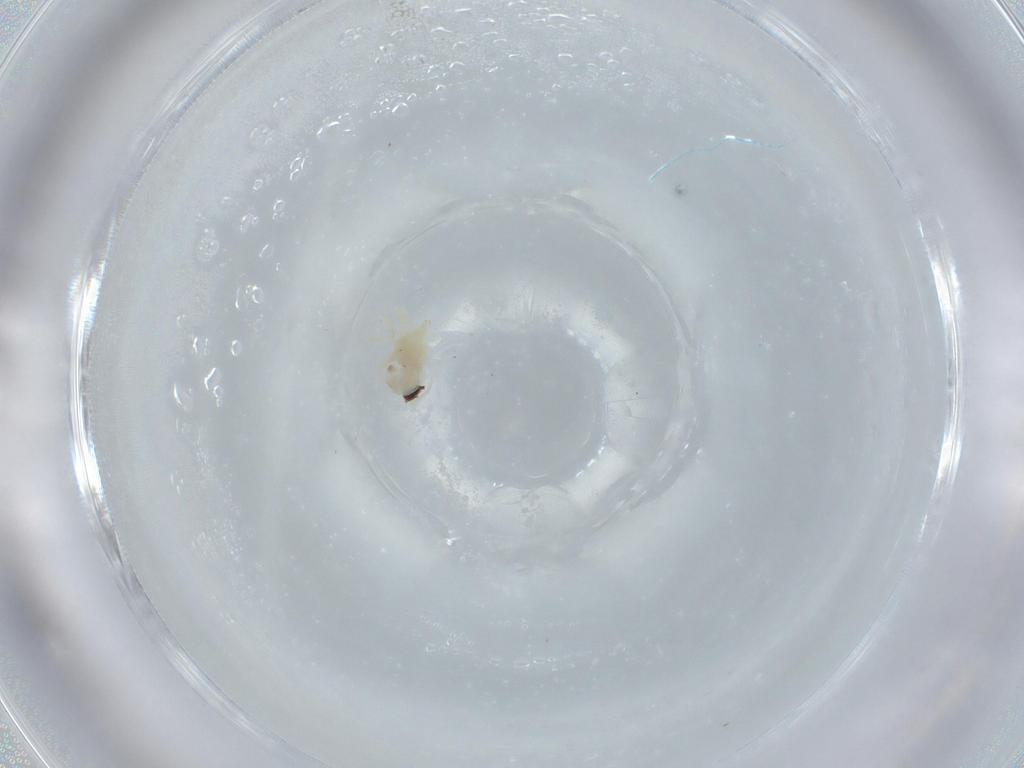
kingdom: Animalia
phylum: Arthropoda
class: Arachnida
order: Trombidiformes
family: Anystidae
